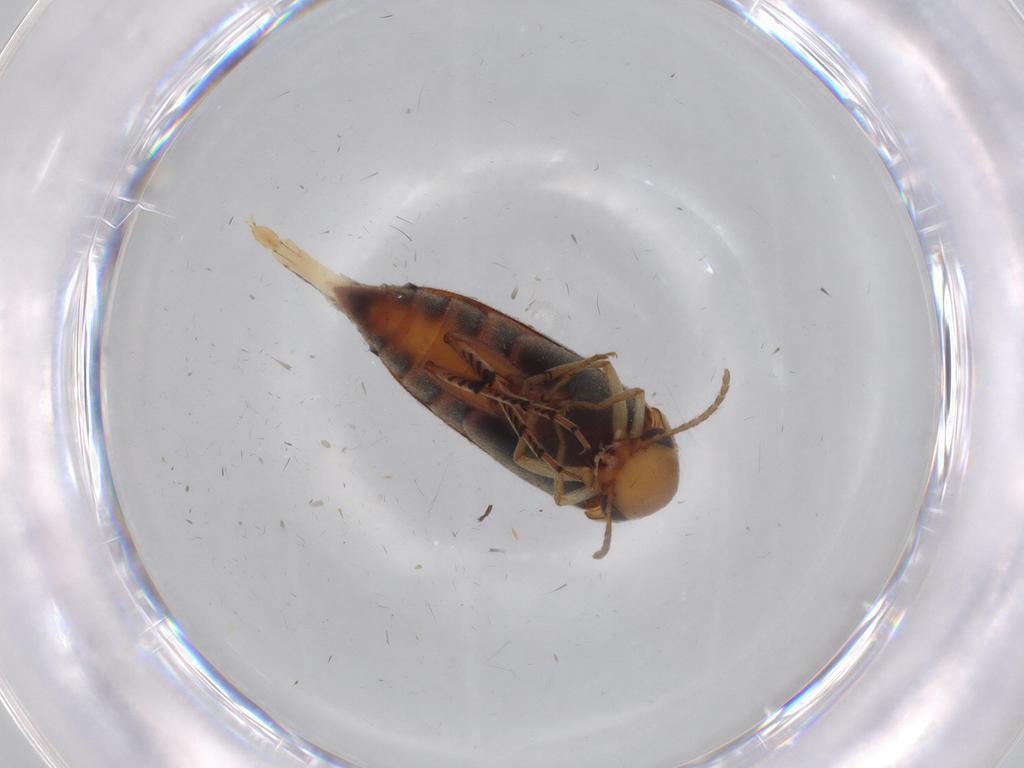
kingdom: Animalia
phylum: Arthropoda
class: Insecta
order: Coleoptera
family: Mordellidae
